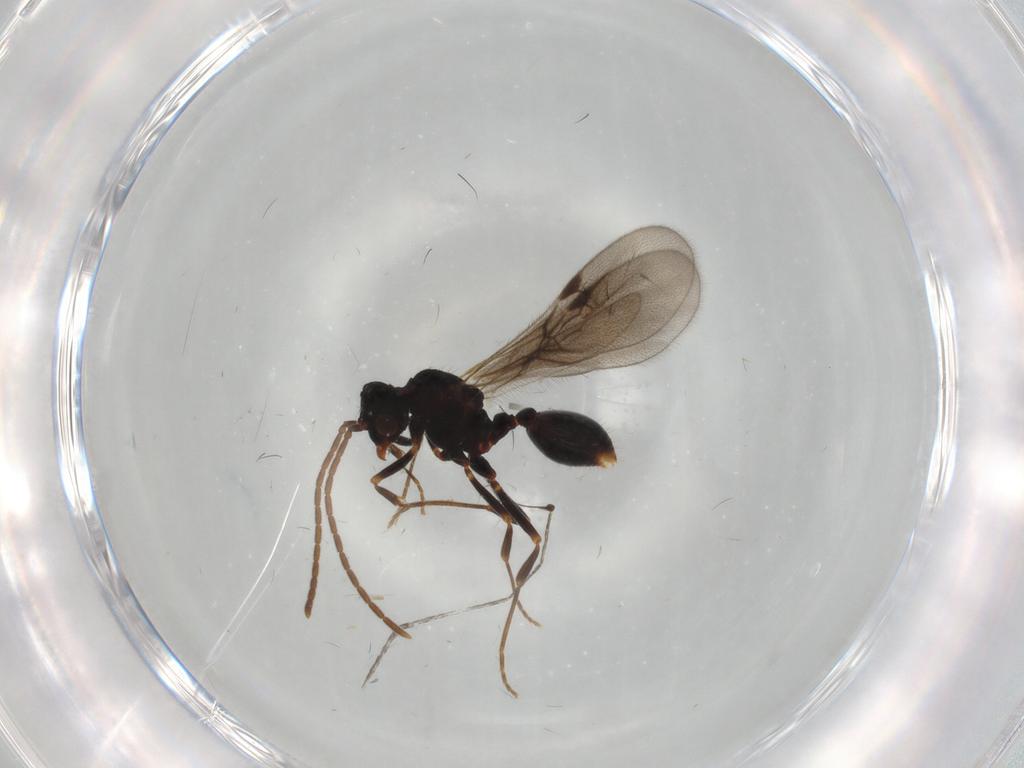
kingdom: Animalia
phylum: Arthropoda
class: Insecta
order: Hymenoptera
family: Formicidae
